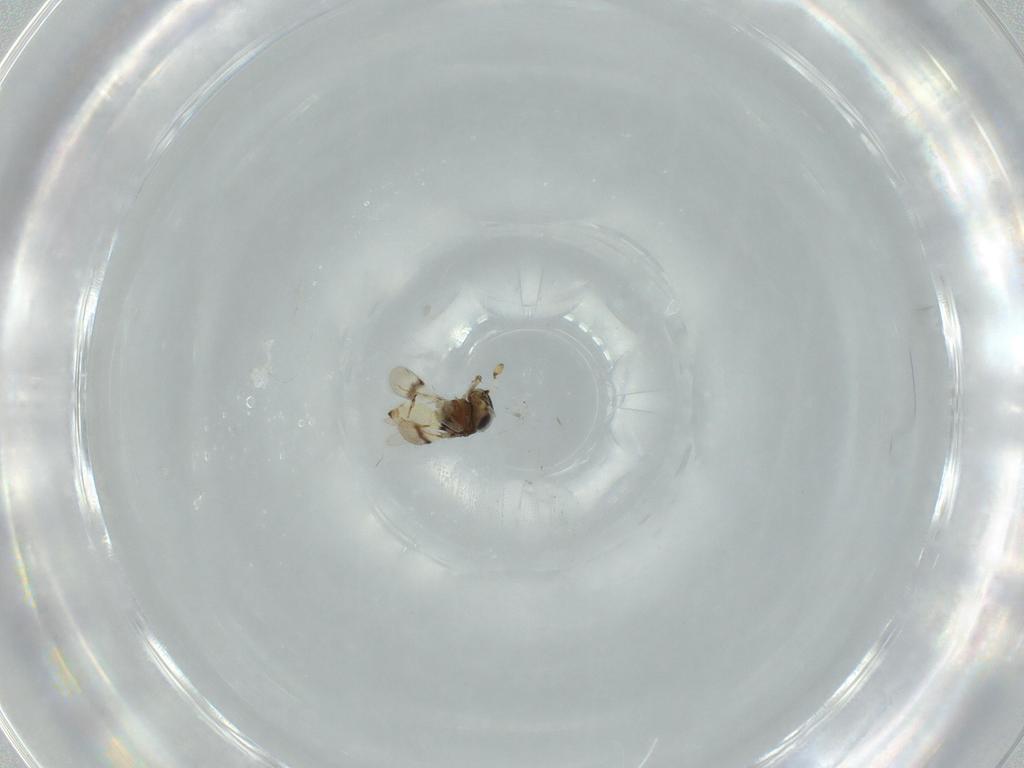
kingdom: Animalia
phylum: Arthropoda
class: Insecta
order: Hymenoptera
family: Scelionidae
